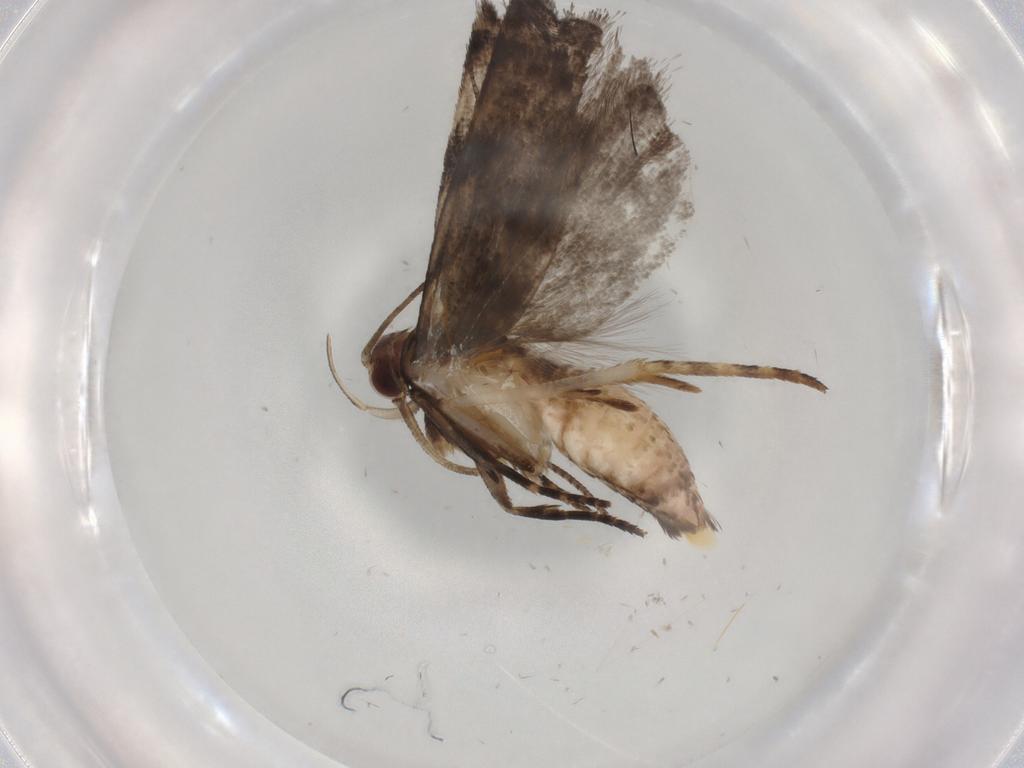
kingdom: Animalia
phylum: Arthropoda
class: Insecta
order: Lepidoptera
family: Gelechiidae
